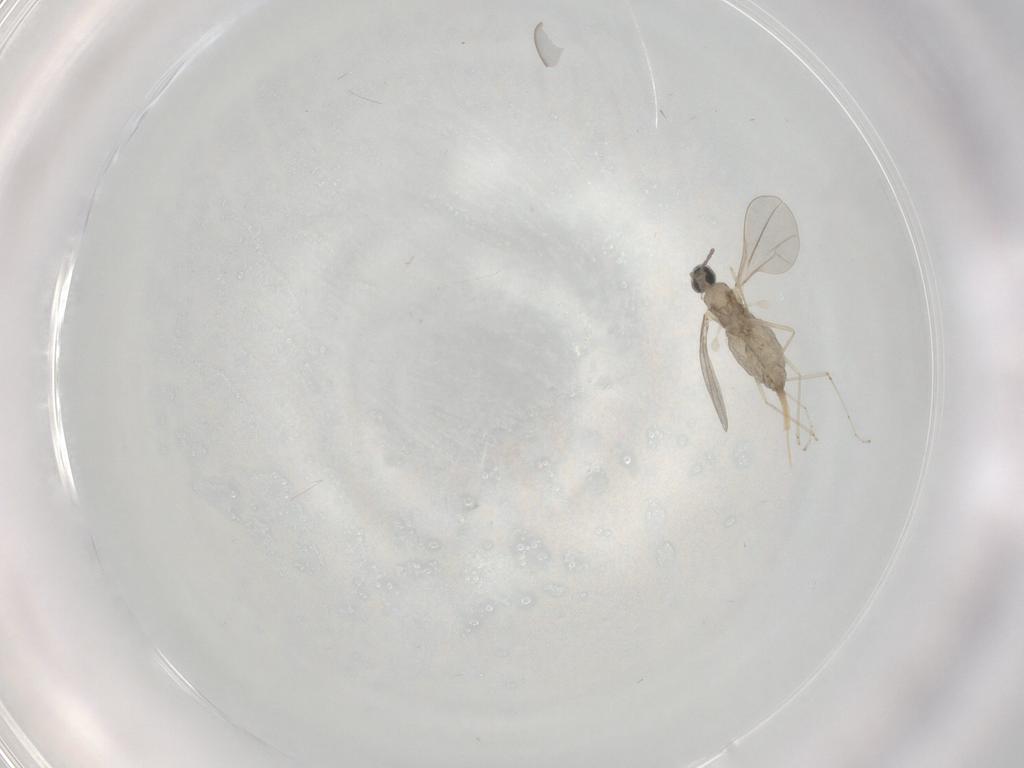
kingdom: Animalia
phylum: Arthropoda
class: Insecta
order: Diptera
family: Phoridae
